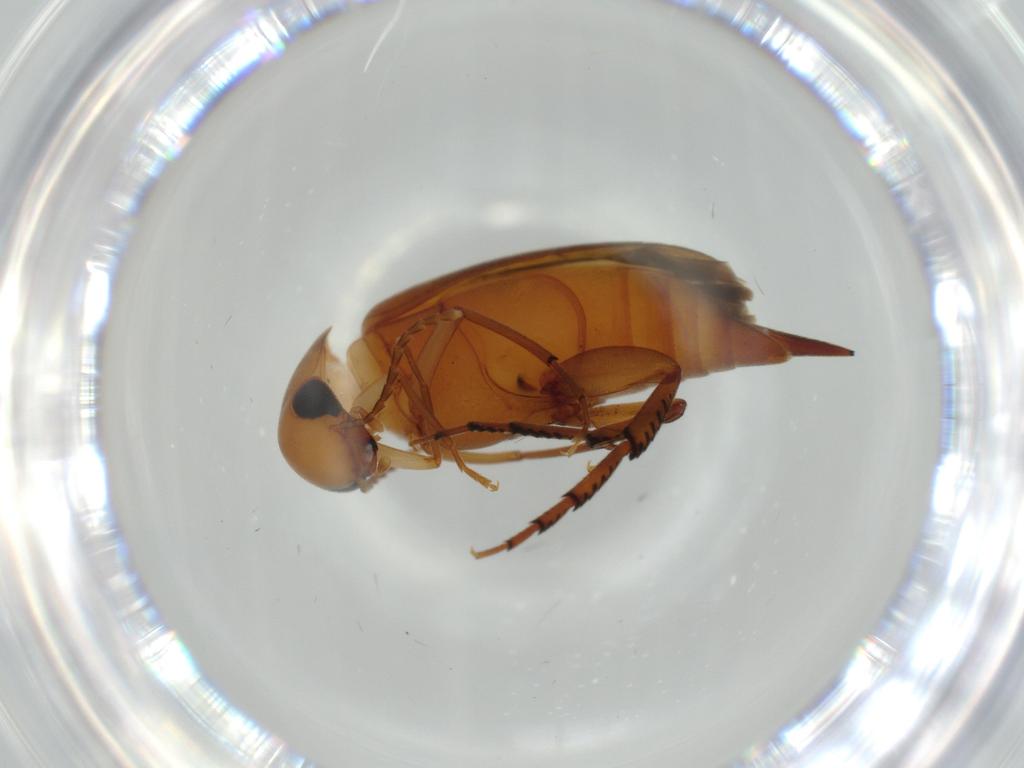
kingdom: Animalia
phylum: Arthropoda
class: Insecta
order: Coleoptera
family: Mordellidae
